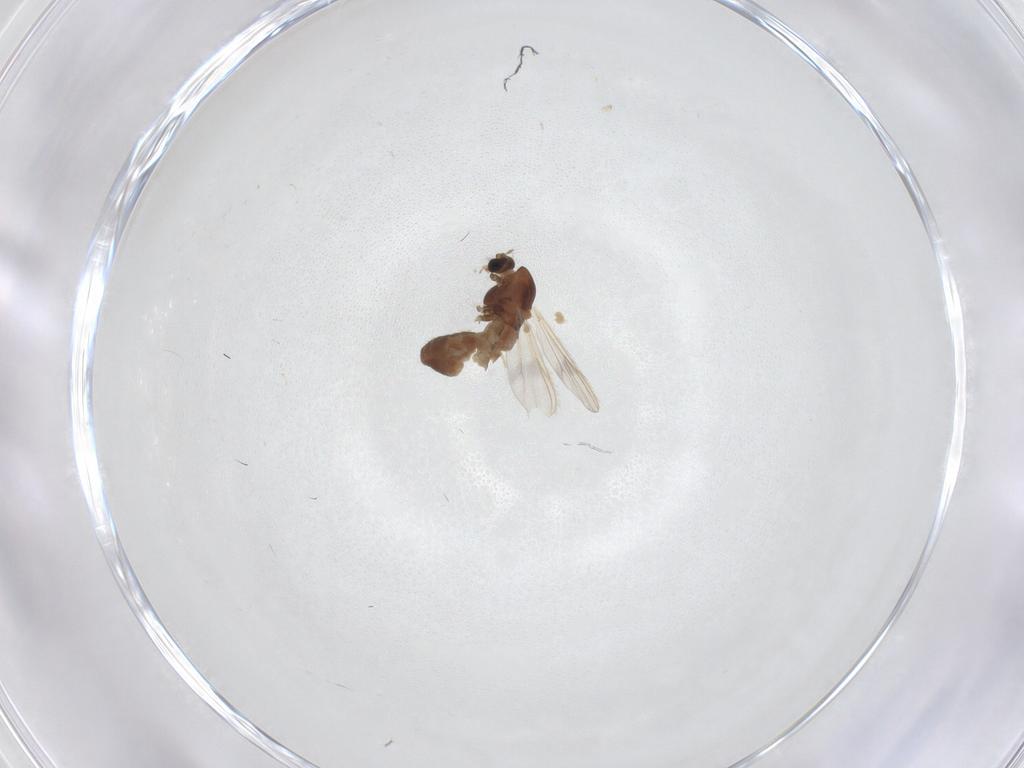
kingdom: Animalia
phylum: Arthropoda
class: Insecta
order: Diptera
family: Chironomidae
